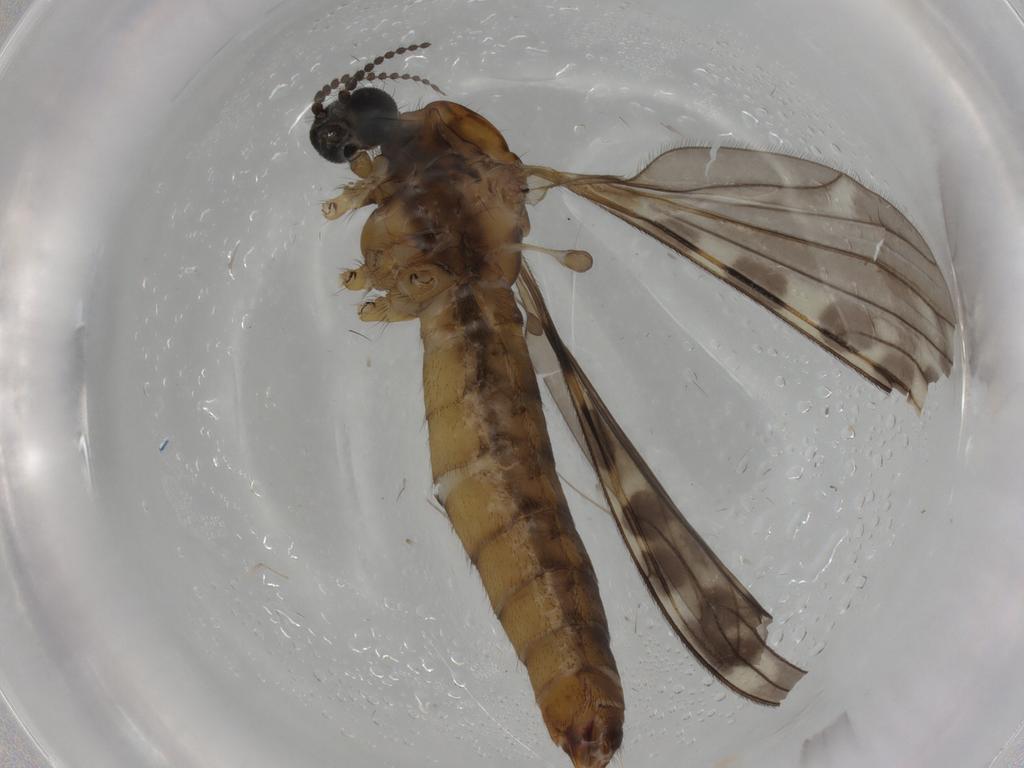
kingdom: Animalia
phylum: Arthropoda
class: Insecta
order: Diptera
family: Limoniidae
